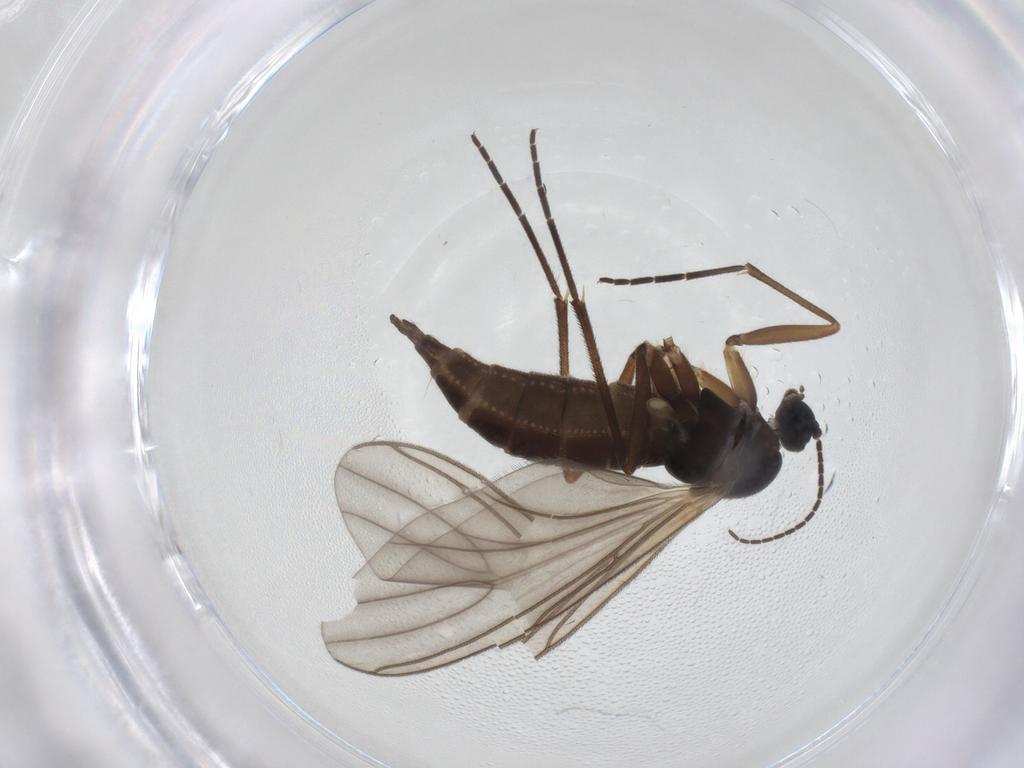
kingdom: Animalia
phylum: Arthropoda
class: Insecta
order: Diptera
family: Sciaridae
